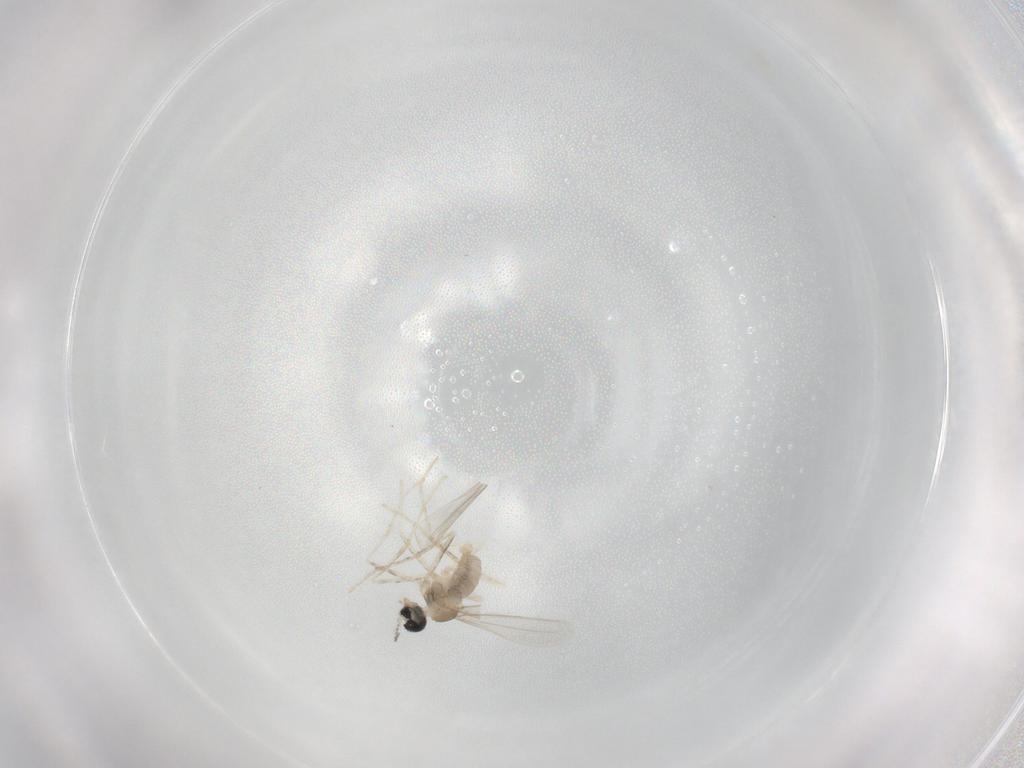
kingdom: Animalia
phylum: Arthropoda
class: Insecta
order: Diptera
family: Cecidomyiidae
